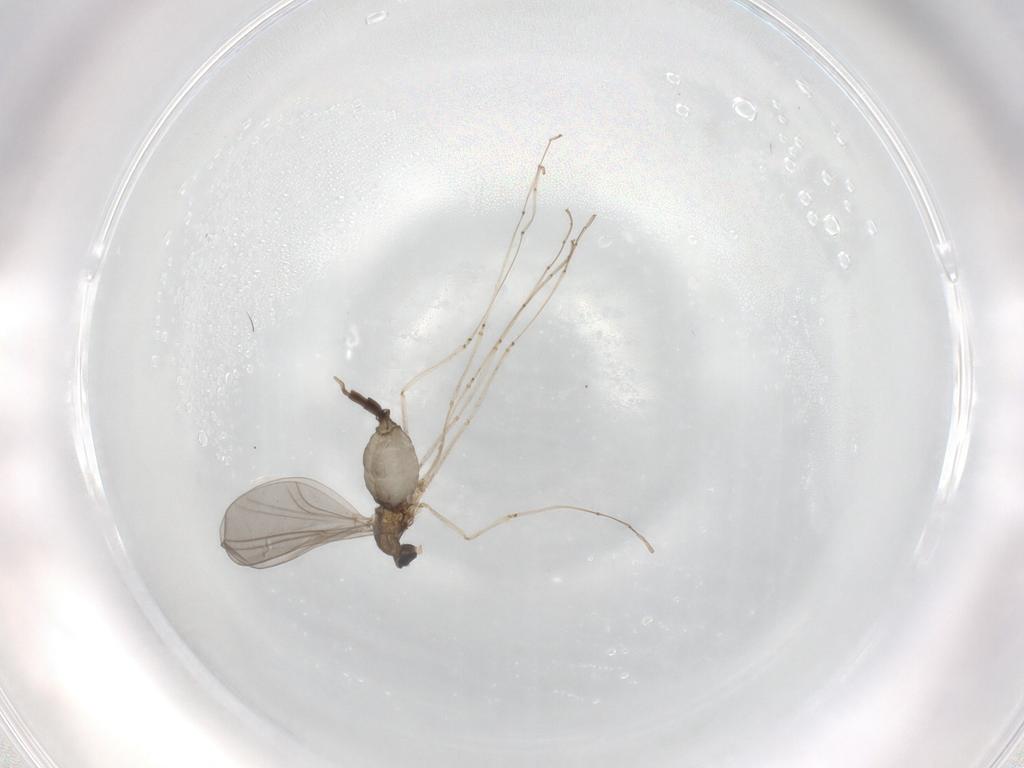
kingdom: Animalia
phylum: Arthropoda
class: Insecta
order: Diptera
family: Cecidomyiidae
